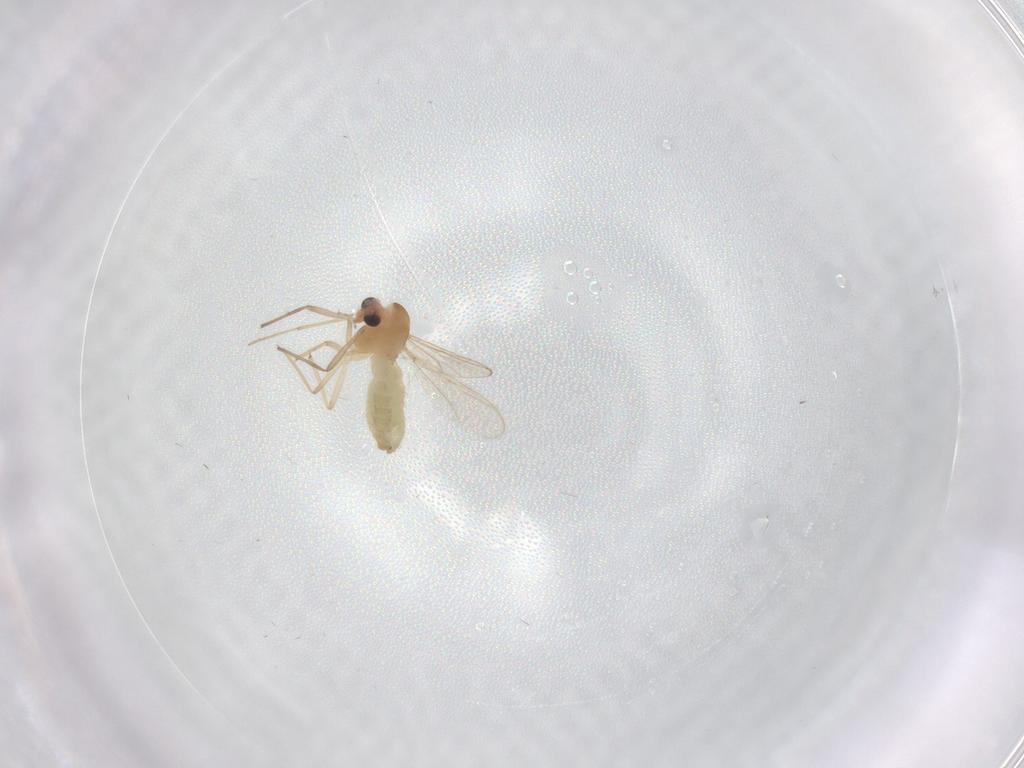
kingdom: Animalia
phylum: Arthropoda
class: Insecta
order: Diptera
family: Chironomidae
